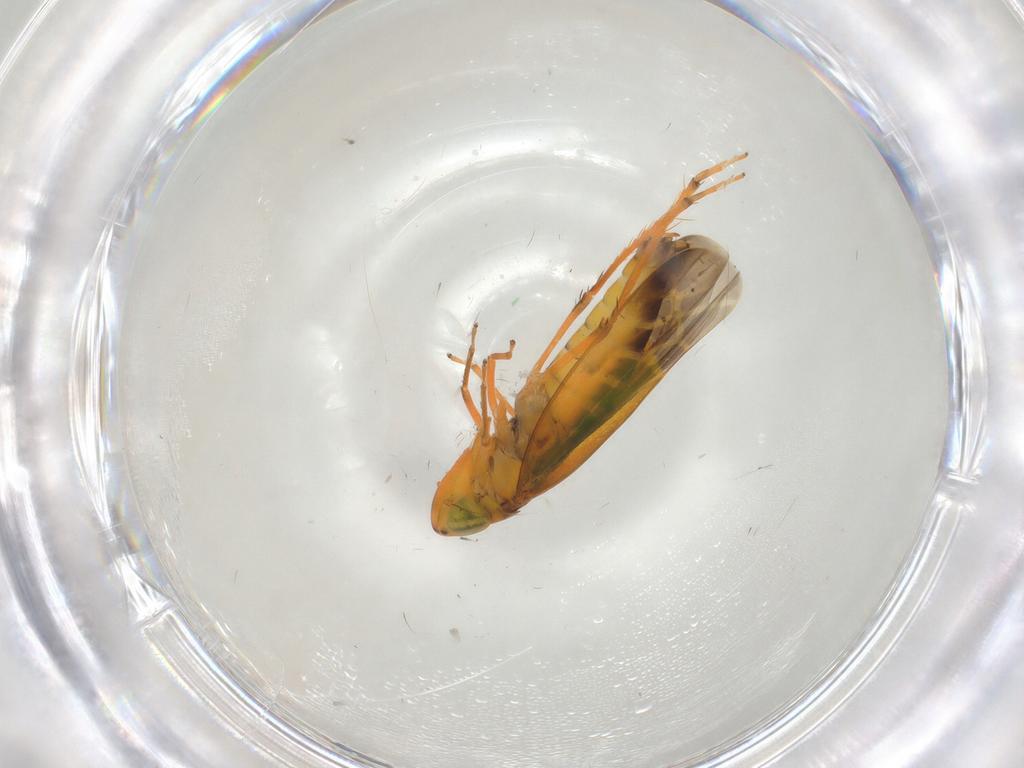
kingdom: Animalia
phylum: Arthropoda
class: Insecta
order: Hemiptera
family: Cicadellidae
